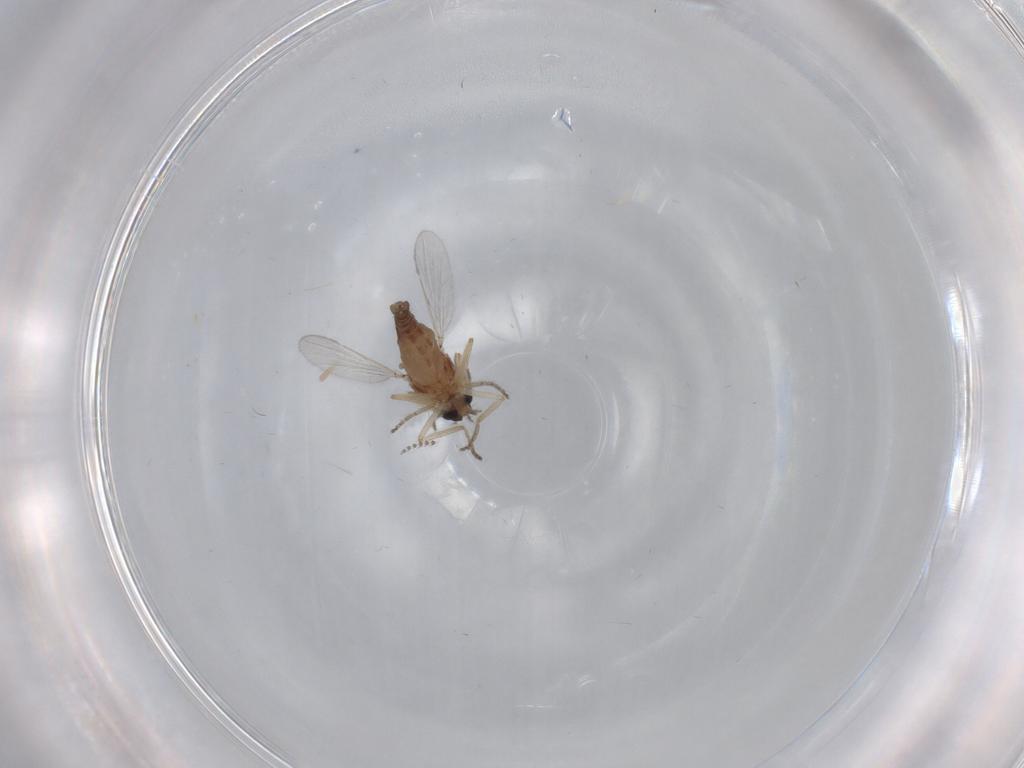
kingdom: Animalia
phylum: Arthropoda
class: Insecta
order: Diptera
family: Ceratopogonidae
